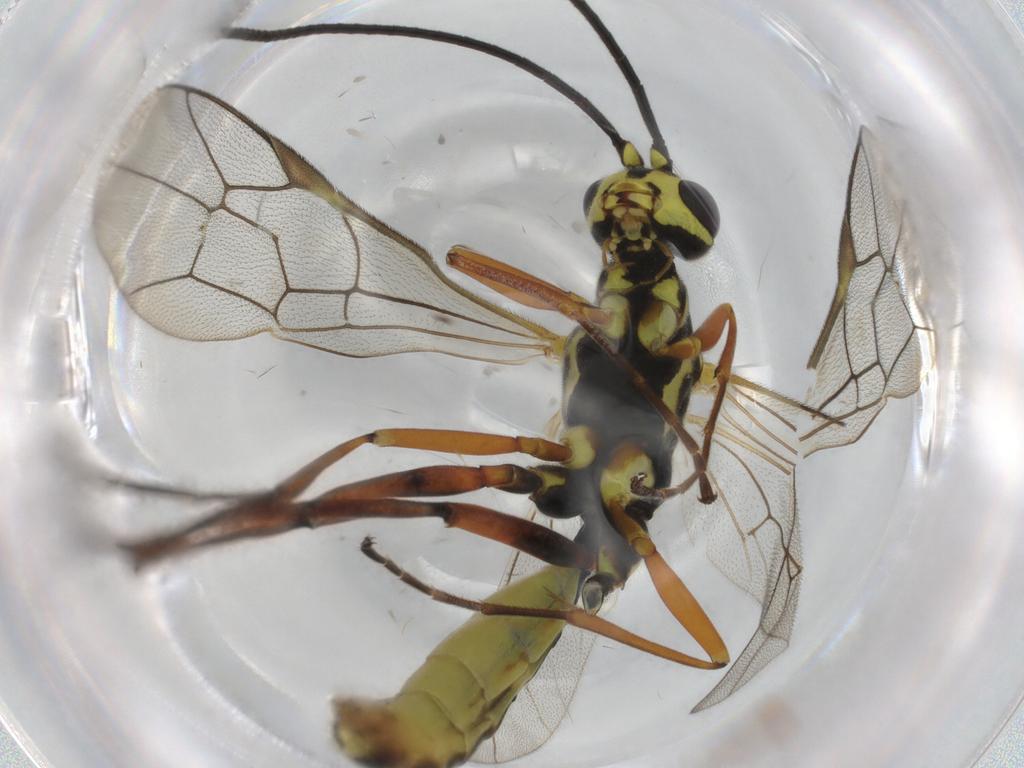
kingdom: Animalia
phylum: Arthropoda
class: Insecta
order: Hymenoptera
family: Ichneumonidae
